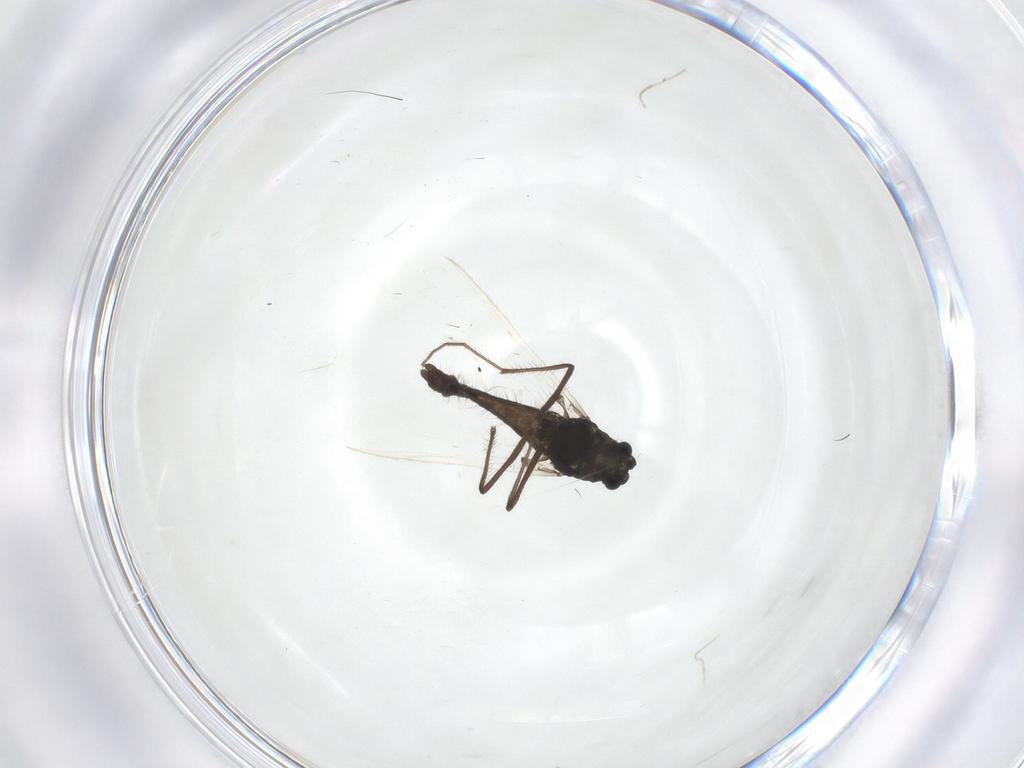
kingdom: Animalia
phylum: Arthropoda
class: Insecta
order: Diptera
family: Chironomidae
